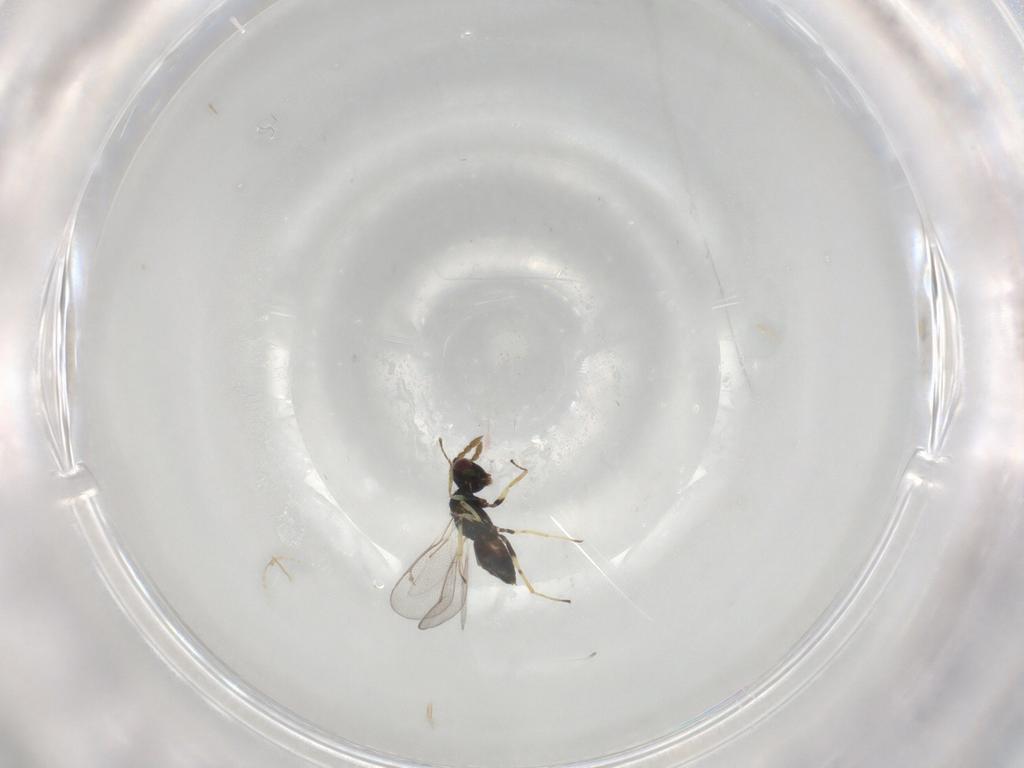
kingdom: Animalia
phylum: Arthropoda
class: Insecta
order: Hymenoptera
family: Eulophidae
